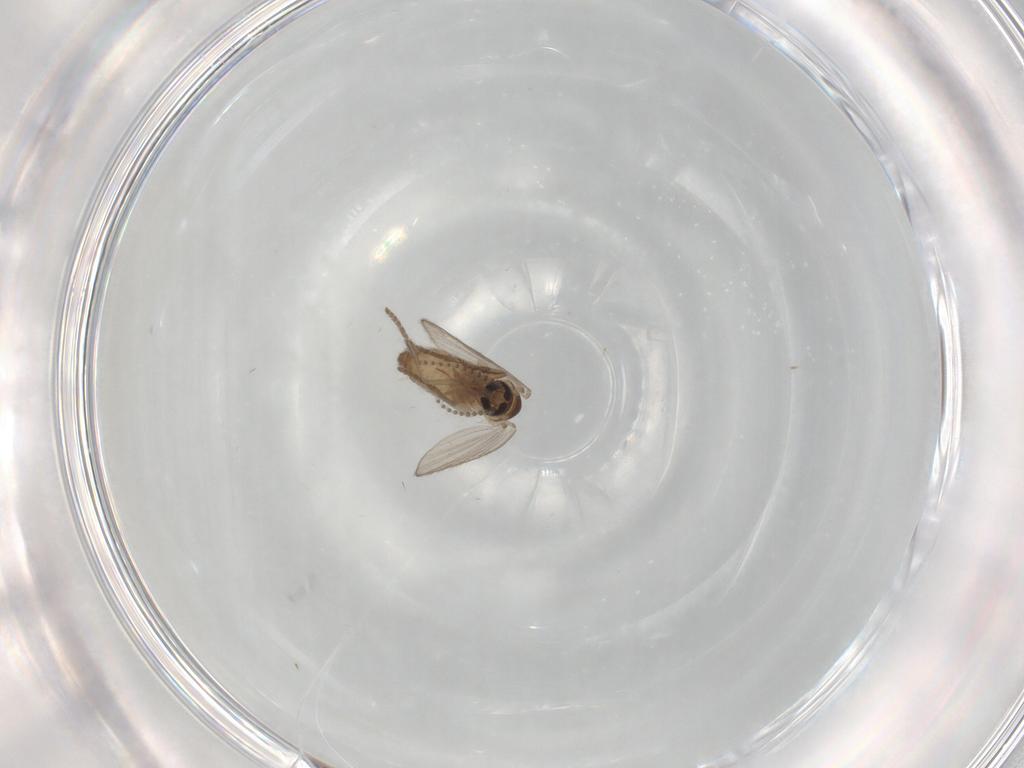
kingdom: Animalia
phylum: Arthropoda
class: Insecta
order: Diptera
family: Psychodidae
